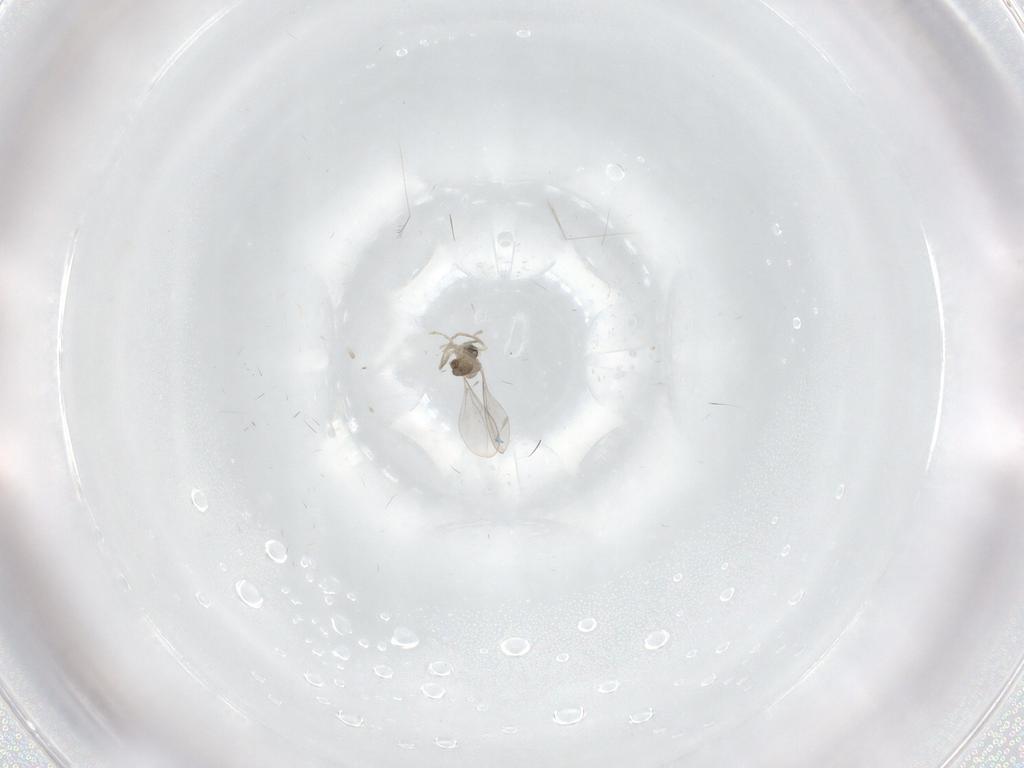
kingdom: Animalia
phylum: Arthropoda
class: Insecta
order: Diptera
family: Cecidomyiidae
